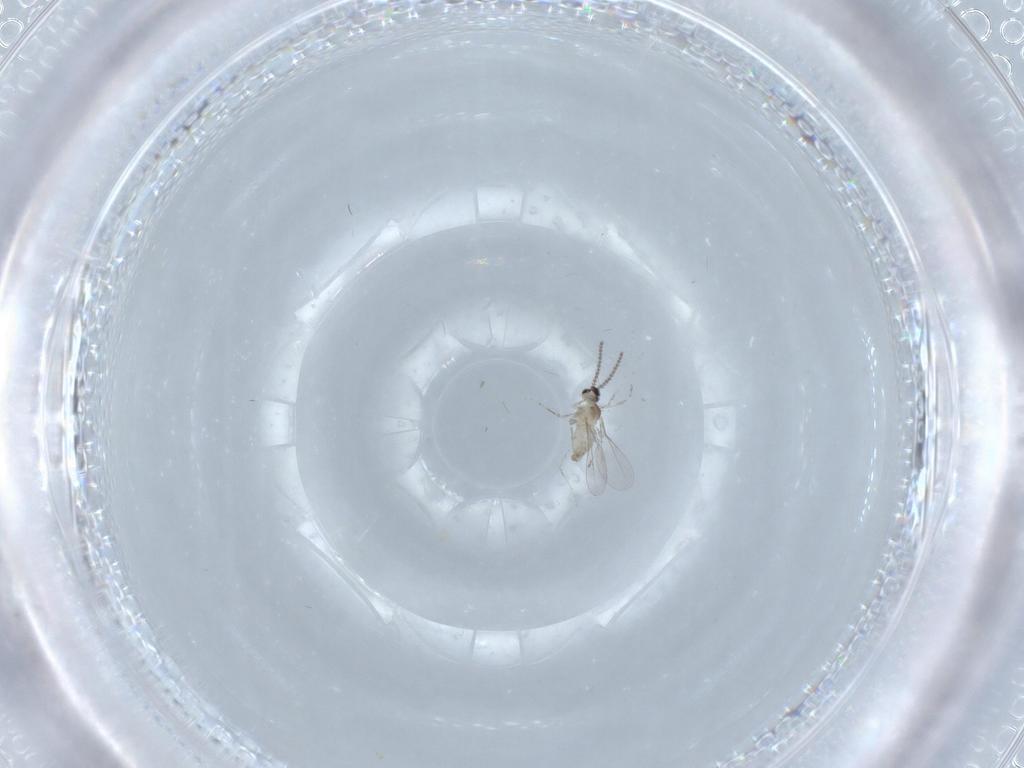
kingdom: Animalia
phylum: Arthropoda
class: Insecta
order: Diptera
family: Cecidomyiidae
